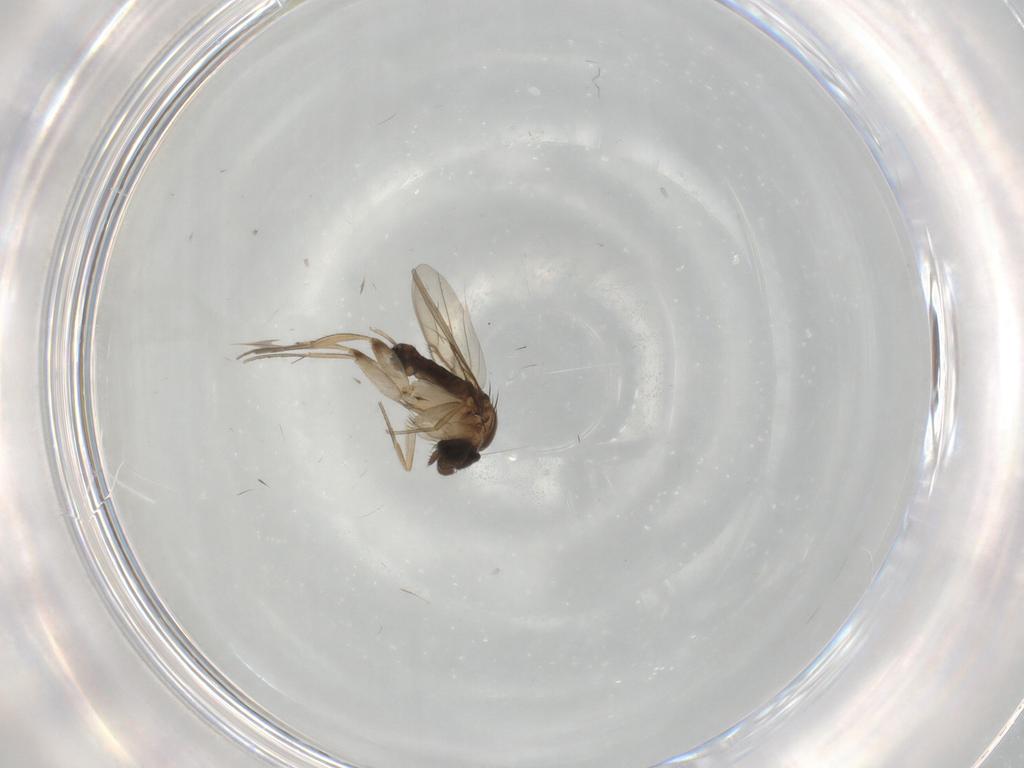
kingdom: Animalia
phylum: Arthropoda
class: Insecta
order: Diptera
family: Phoridae
